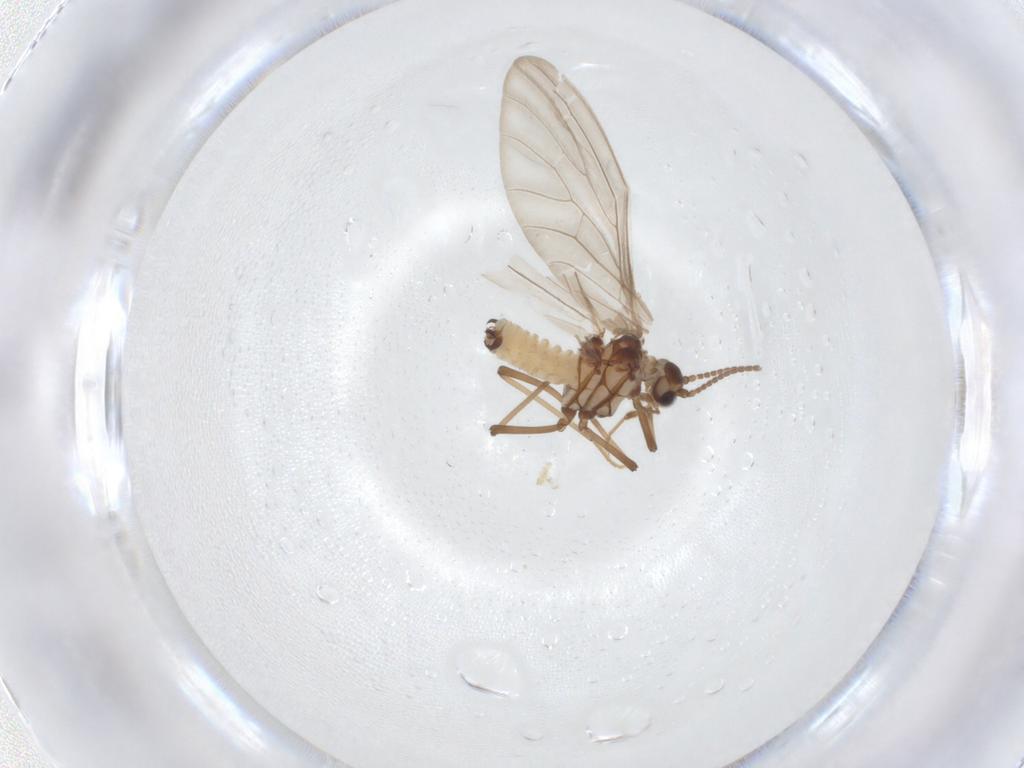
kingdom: Animalia
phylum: Arthropoda
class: Insecta
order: Neuroptera
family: Coniopterygidae
